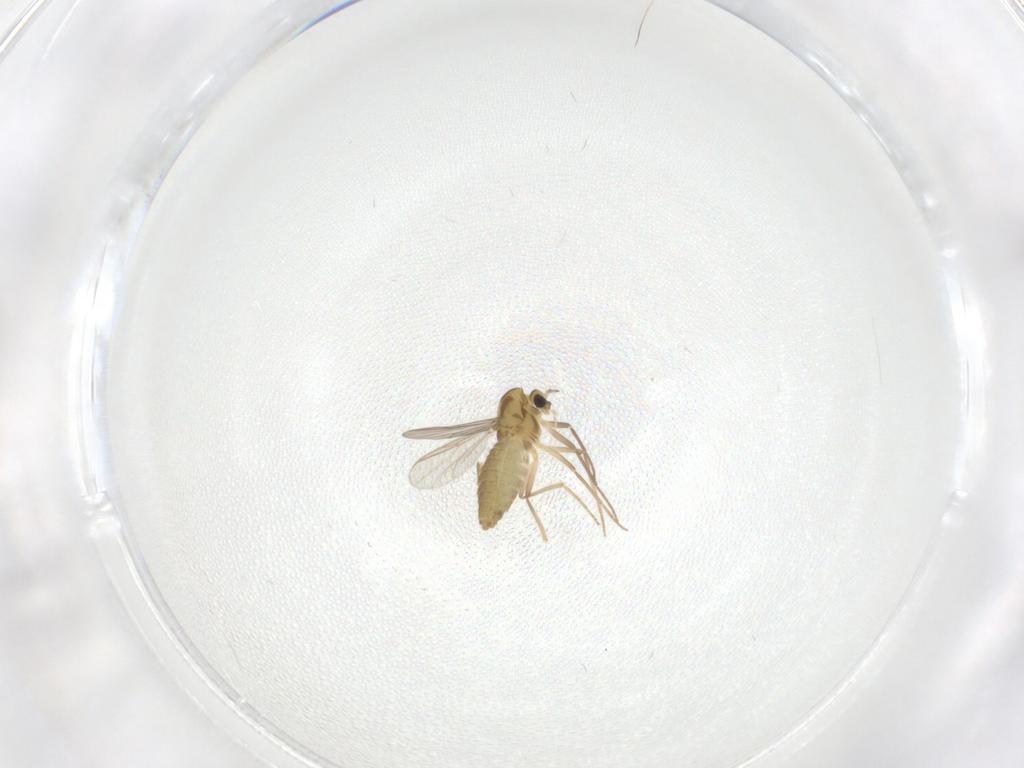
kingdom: Animalia
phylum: Arthropoda
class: Insecta
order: Diptera
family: Chironomidae
